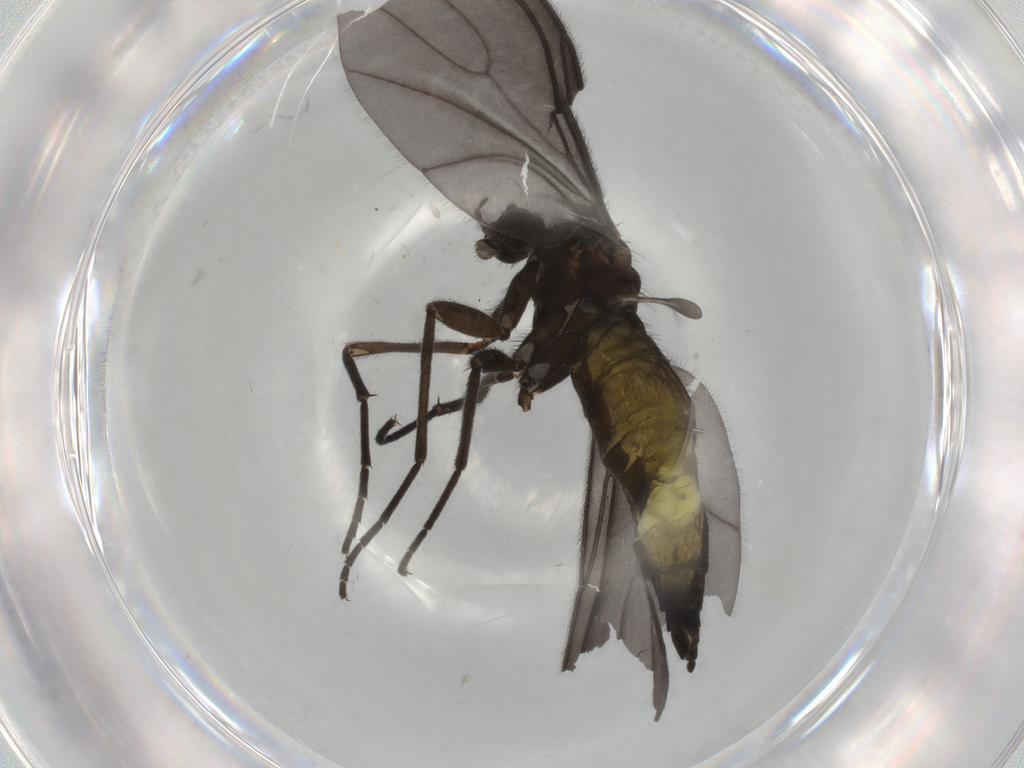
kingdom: Animalia
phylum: Arthropoda
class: Insecta
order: Diptera
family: Sciaridae
